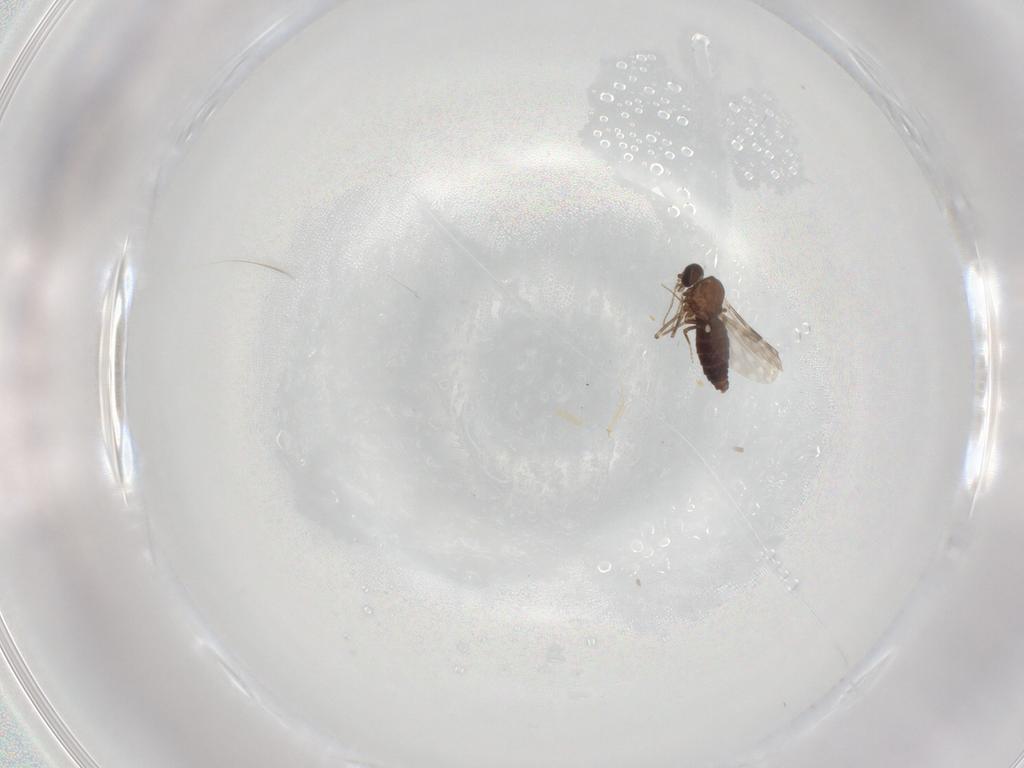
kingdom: Animalia
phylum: Arthropoda
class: Insecta
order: Diptera
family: Ceratopogonidae
